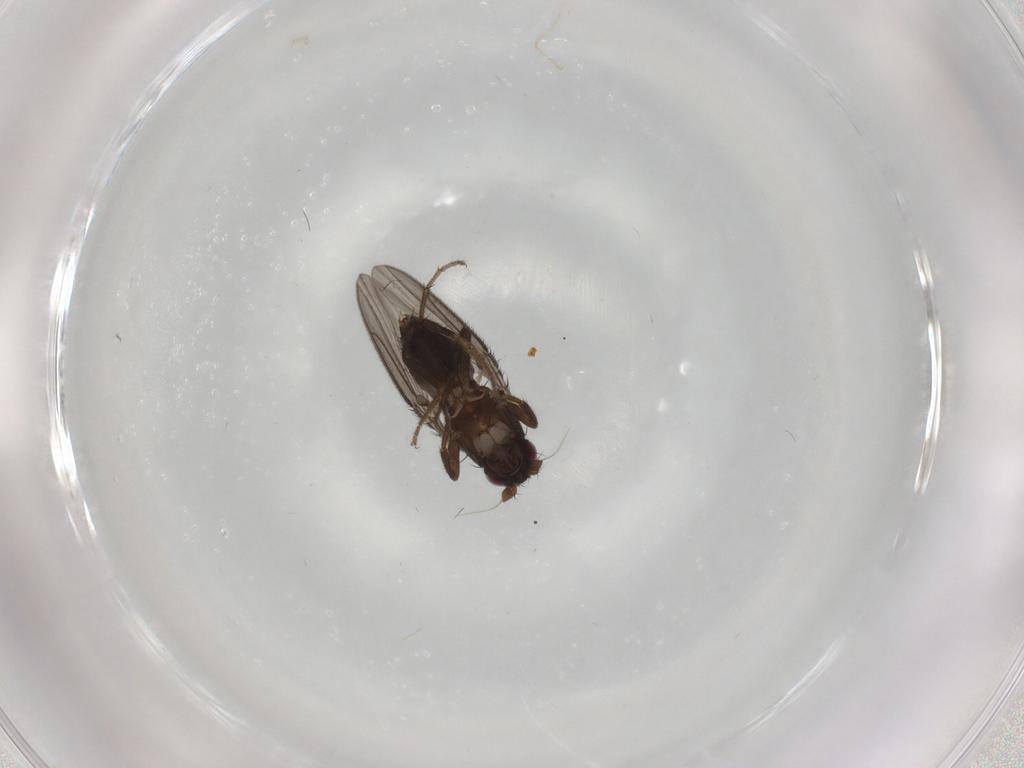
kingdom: Animalia
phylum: Arthropoda
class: Insecta
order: Diptera
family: Sphaeroceridae
